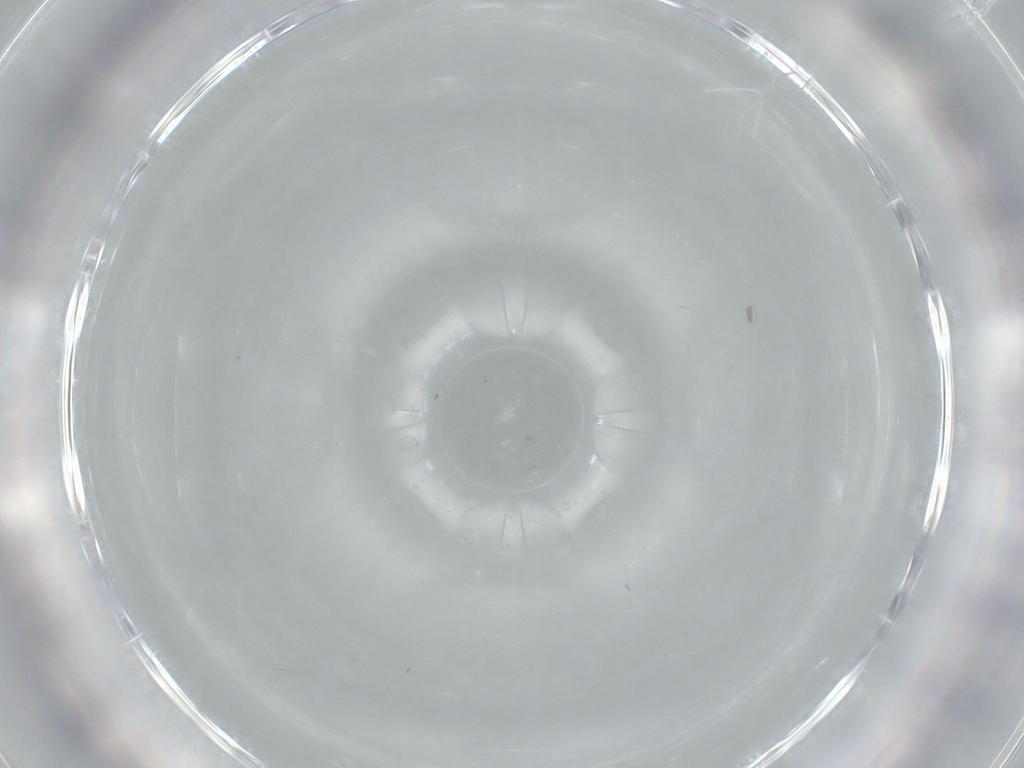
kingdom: Animalia
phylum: Arthropoda
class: Insecta
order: Diptera
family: Cecidomyiidae
